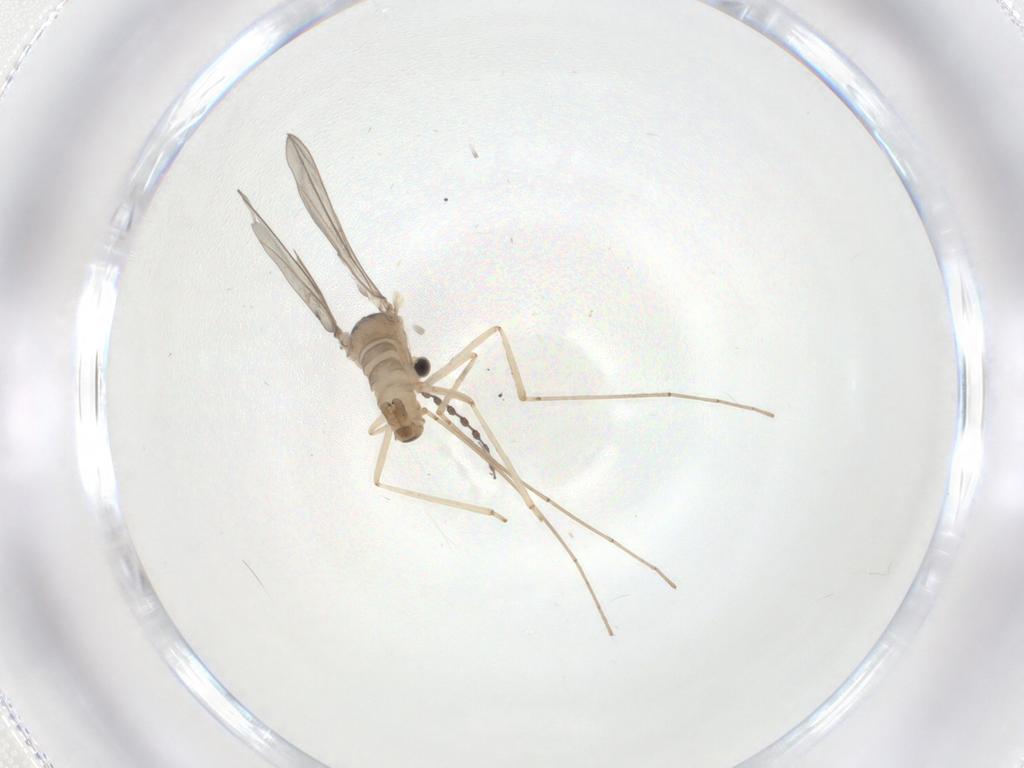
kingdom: Animalia
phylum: Arthropoda
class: Insecta
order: Diptera
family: Cecidomyiidae
